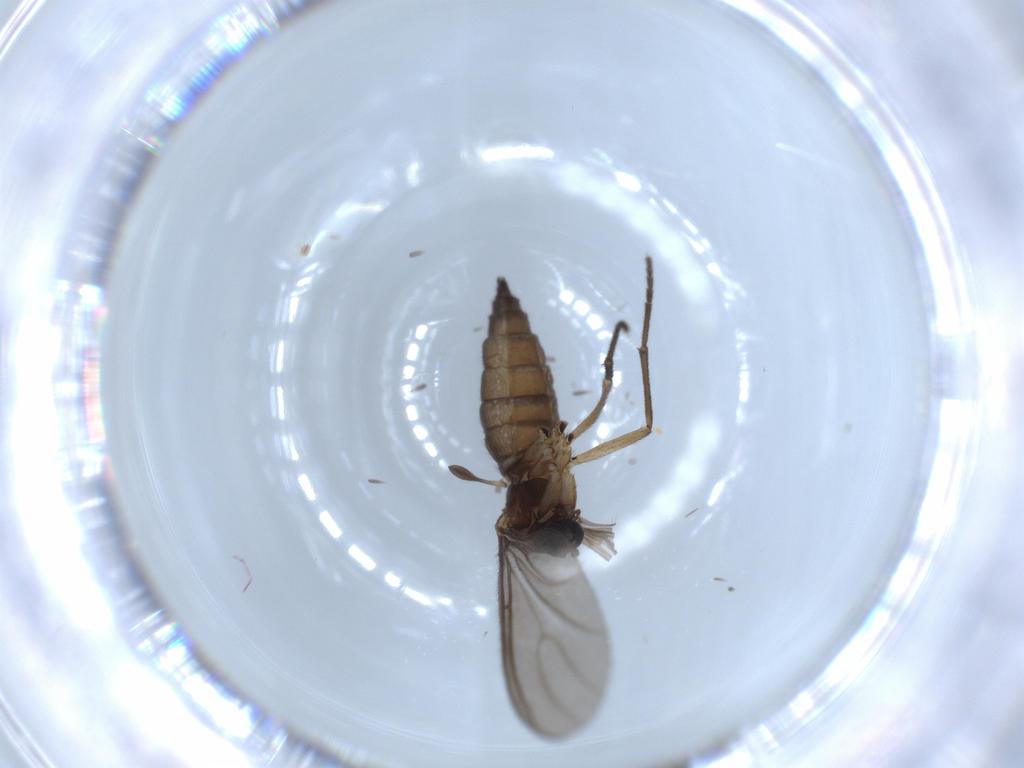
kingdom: Animalia
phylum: Arthropoda
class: Insecta
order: Diptera
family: Sciaridae
